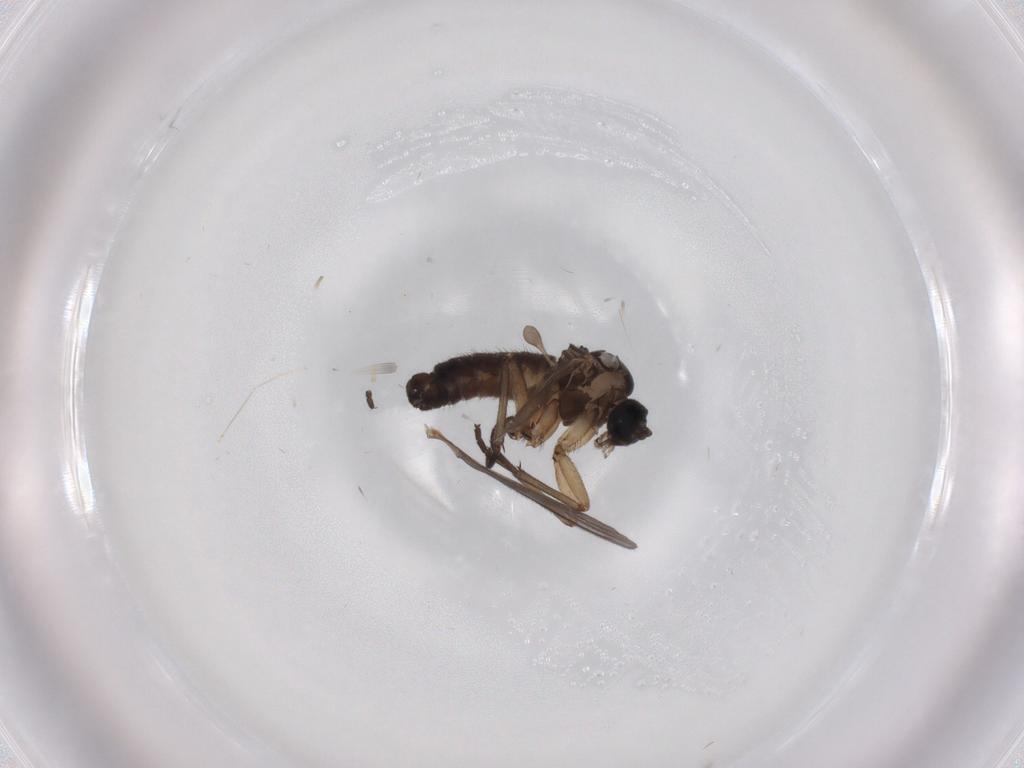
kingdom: Animalia
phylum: Arthropoda
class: Insecta
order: Diptera
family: Sciaridae
